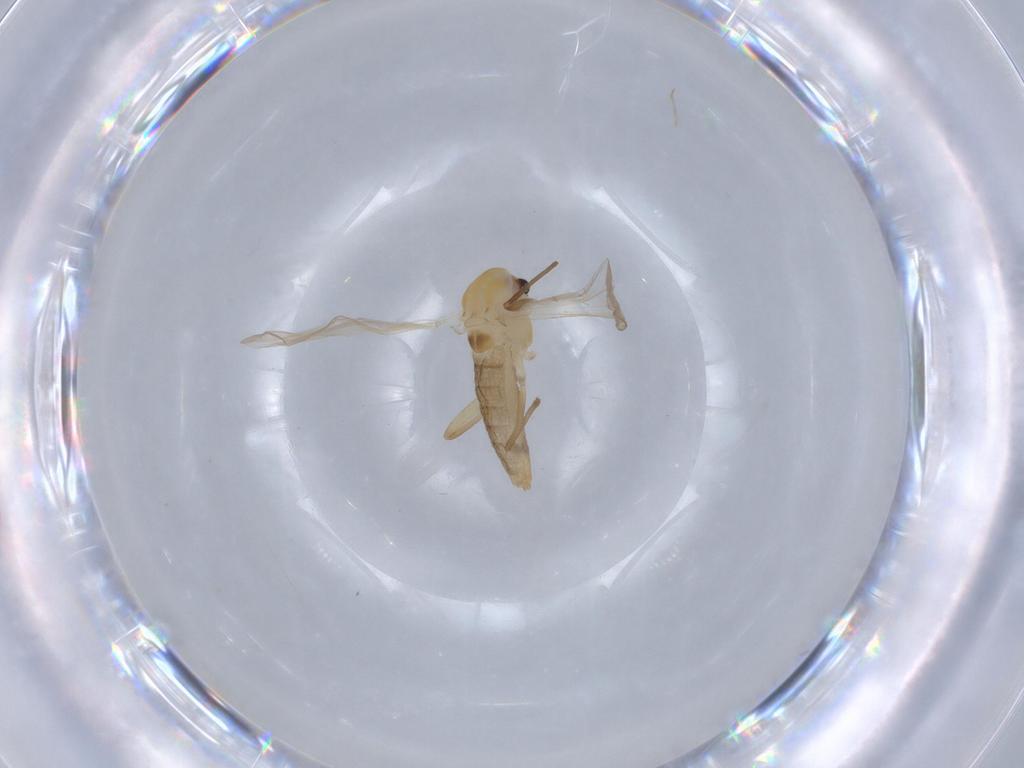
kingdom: Animalia
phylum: Arthropoda
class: Insecta
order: Diptera
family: Chironomidae
